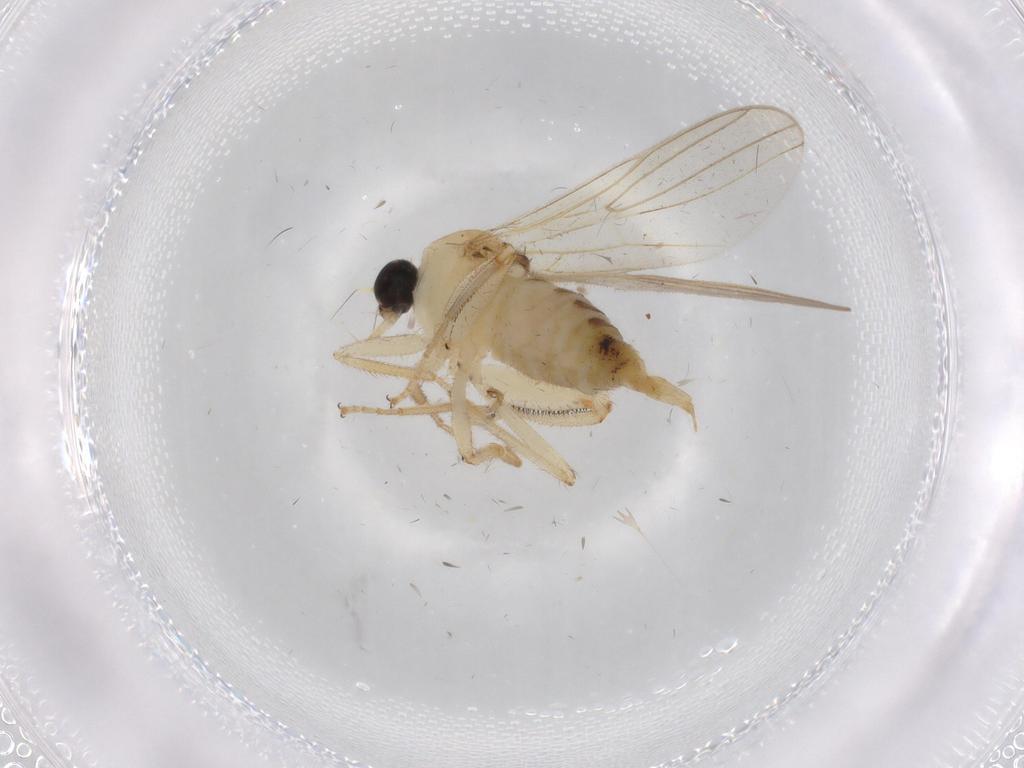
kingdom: Animalia
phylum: Arthropoda
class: Insecta
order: Diptera
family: Hybotidae
